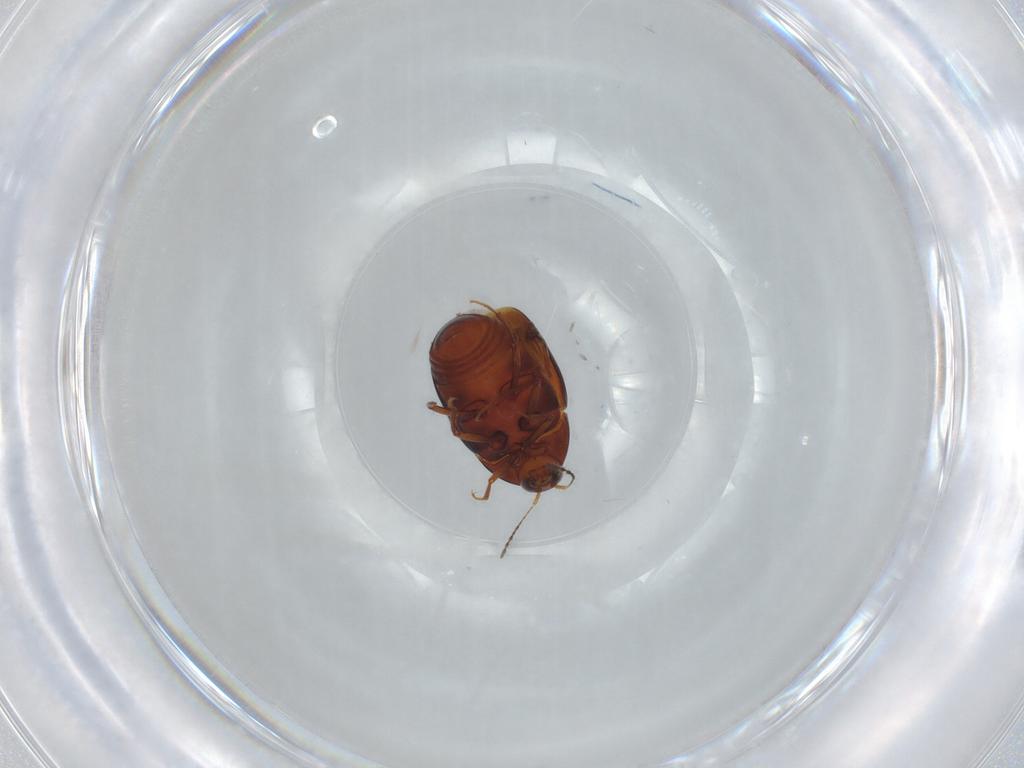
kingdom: Animalia
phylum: Arthropoda
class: Insecta
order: Coleoptera
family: Staphylinidae
